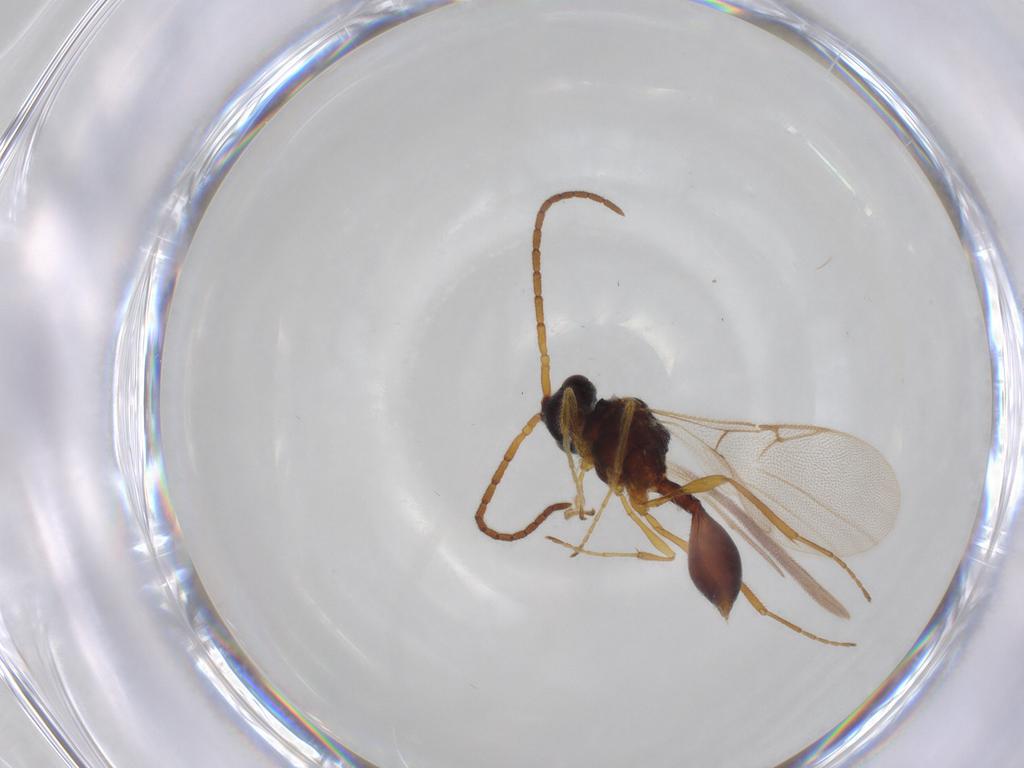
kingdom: Animalia
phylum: Arthropoda
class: Insecta
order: Hymenoptera
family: Diapriidae
